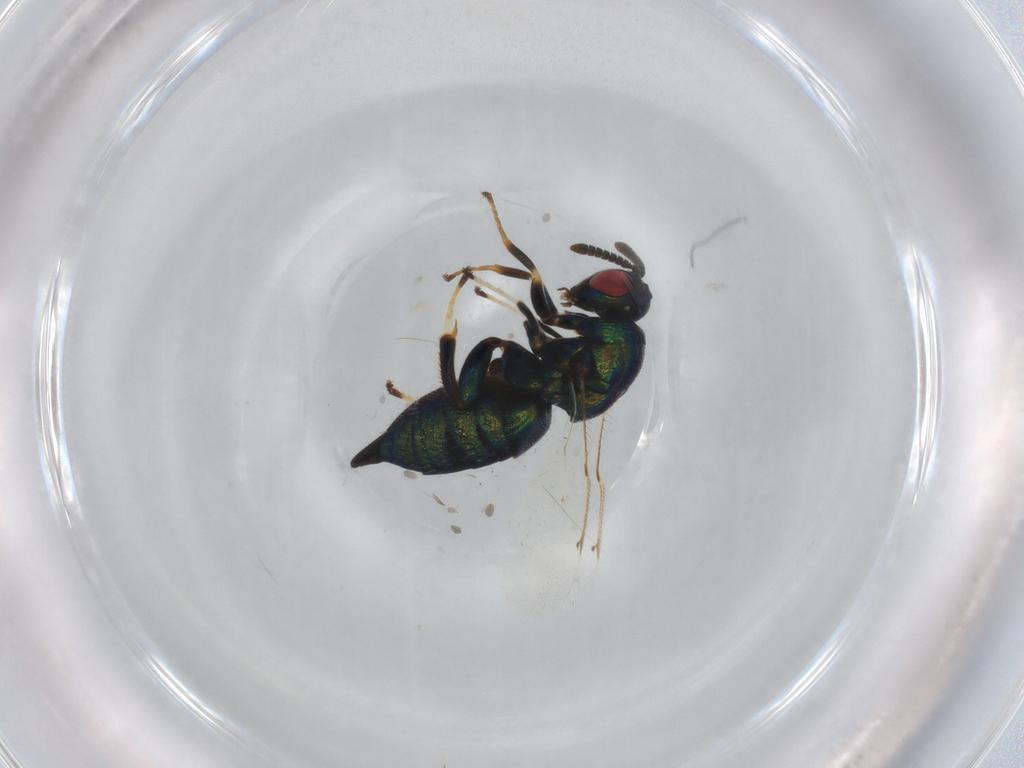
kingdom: Animalia
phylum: Arthropoda
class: Insecta
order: Hymenoptera
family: Ormyridae
